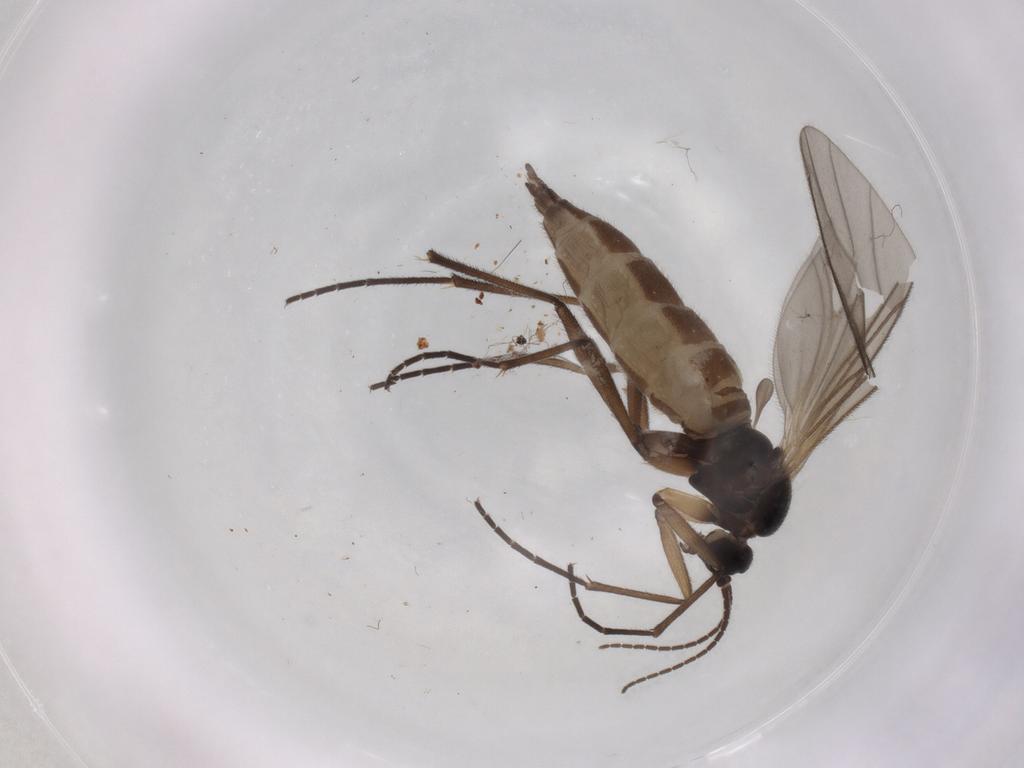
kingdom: Animalia
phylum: Arthropoda
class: Insecta
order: Diptera
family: Sciaridae
